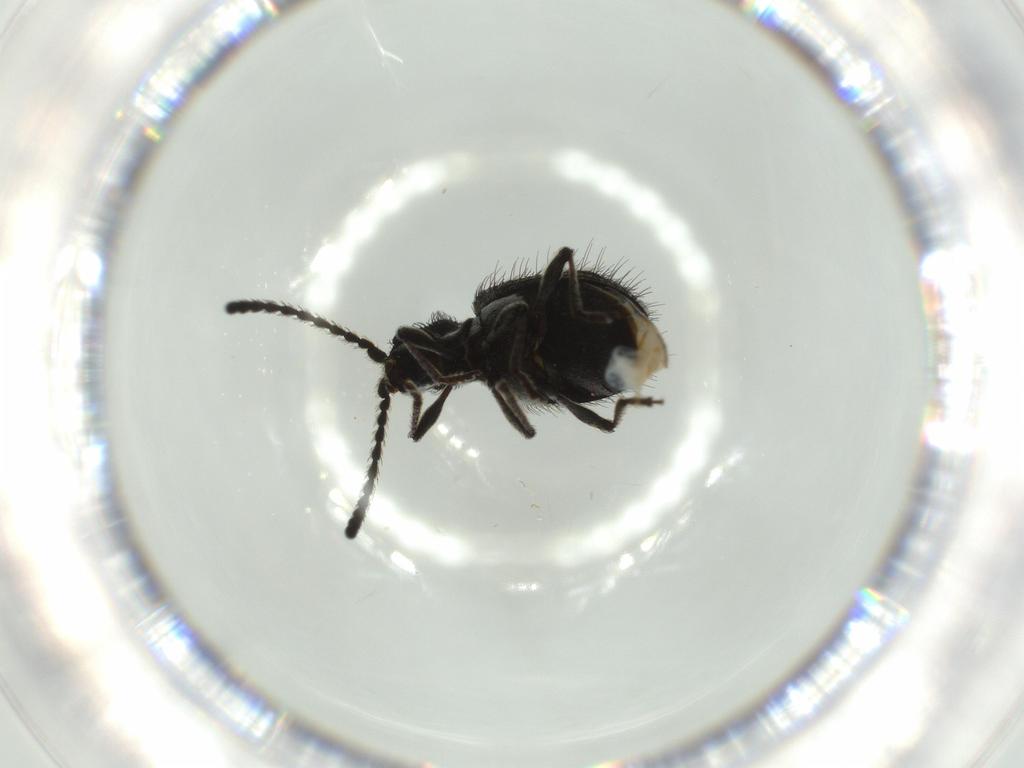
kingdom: Animalia
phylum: Arthropoda
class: Insecta
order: Coleoptera
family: Ptinidae
